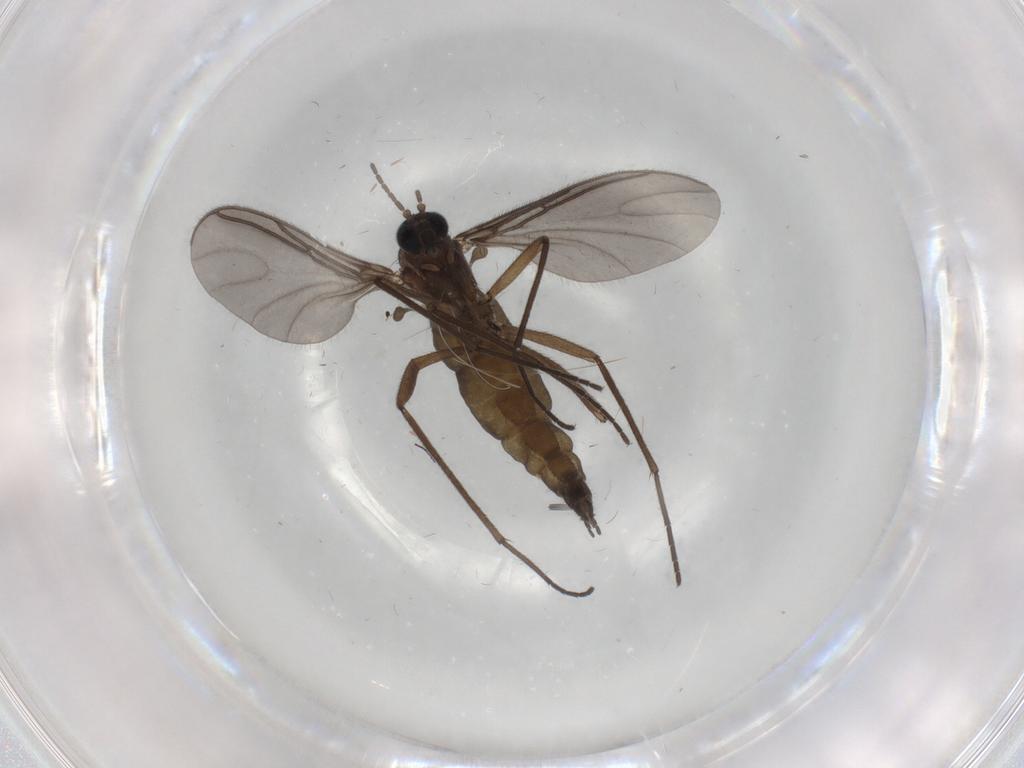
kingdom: Animalia
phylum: Arthropoda
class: Insecta
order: Diptera
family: Sciaridae
